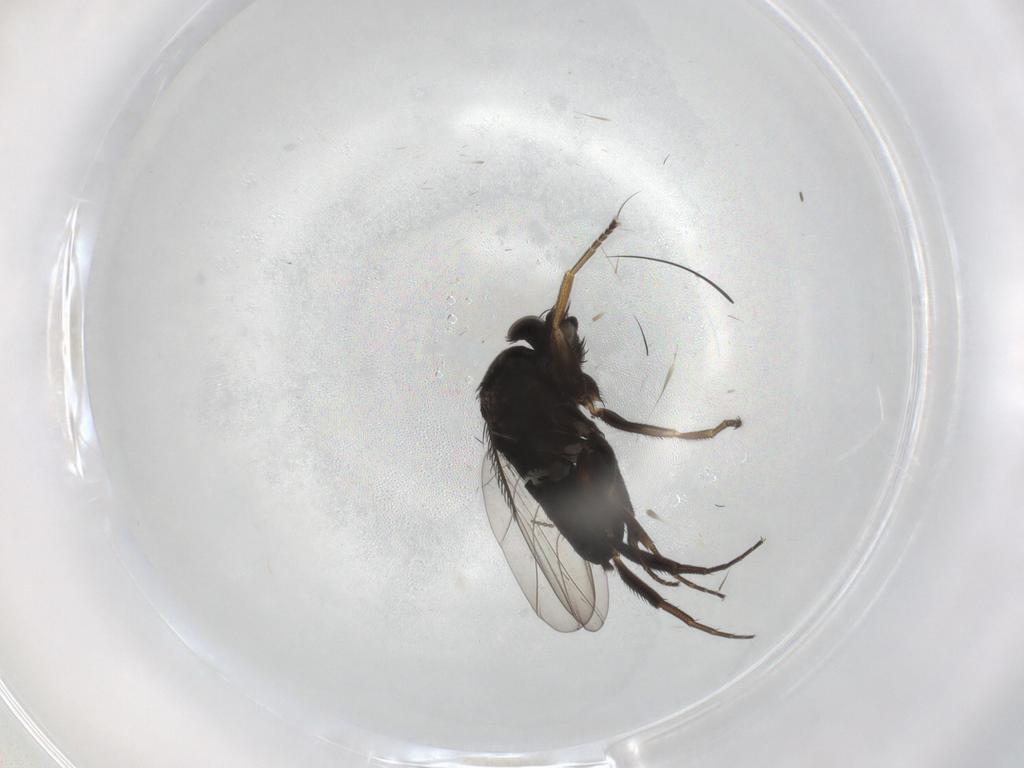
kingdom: Animalia
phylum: Arthropoda
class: Insecta
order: Diptera
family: Phoridae
